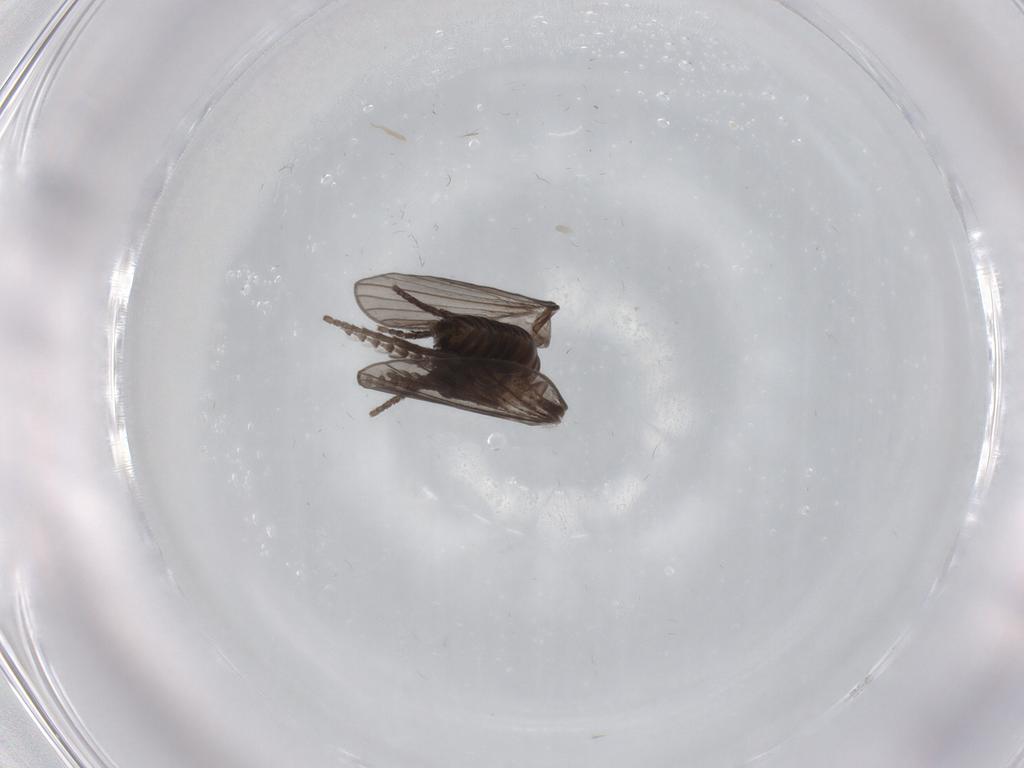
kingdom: Animalia
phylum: Arthropoda
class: Insecta
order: Diptera
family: Psychodidae
